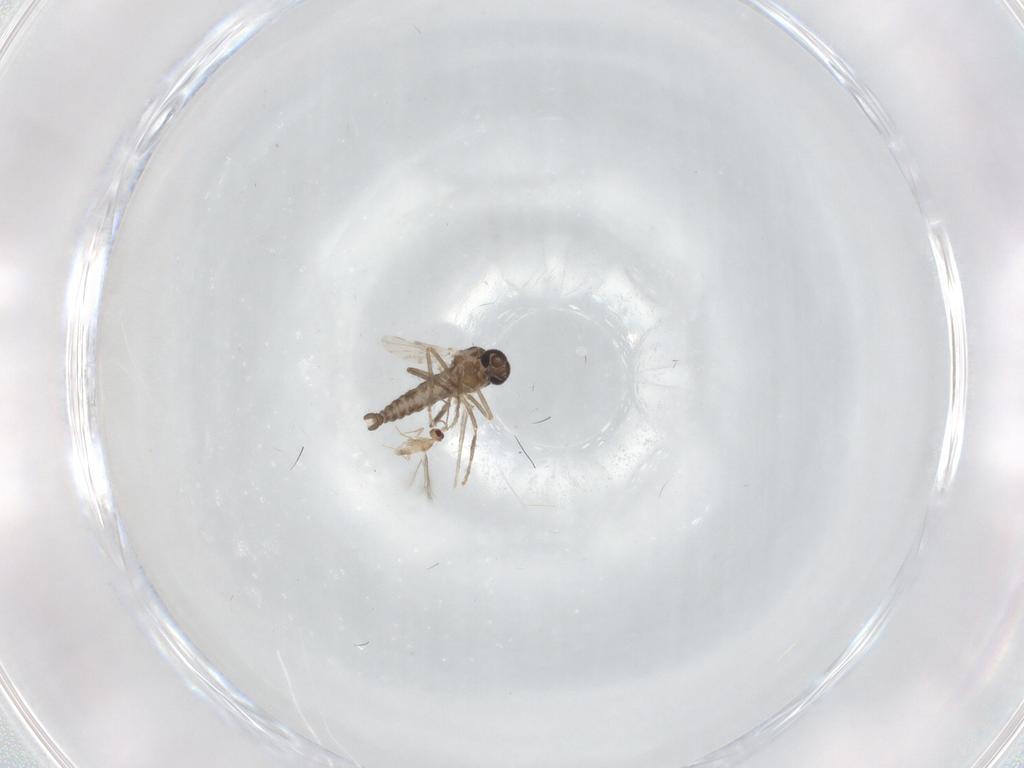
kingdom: Animalia
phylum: Arthropoda
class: Insecta
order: Diptera
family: Ceratopogonidae
